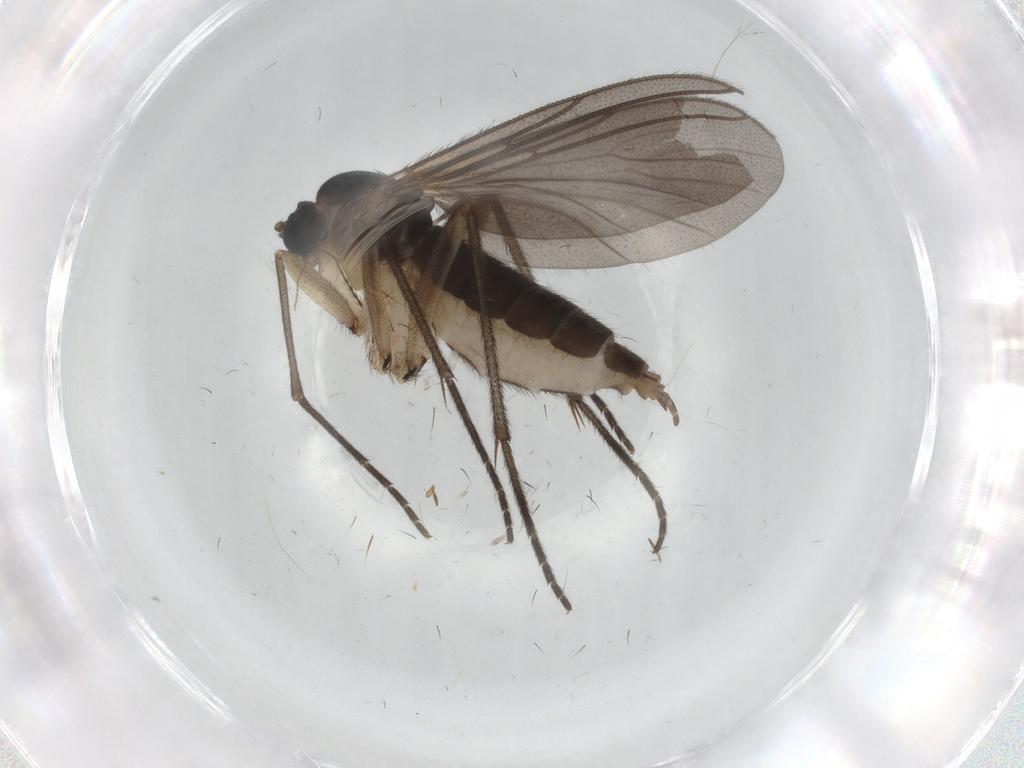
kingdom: Animalia
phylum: Arthropoda
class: Insecta
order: Diptera
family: Sciaridae
